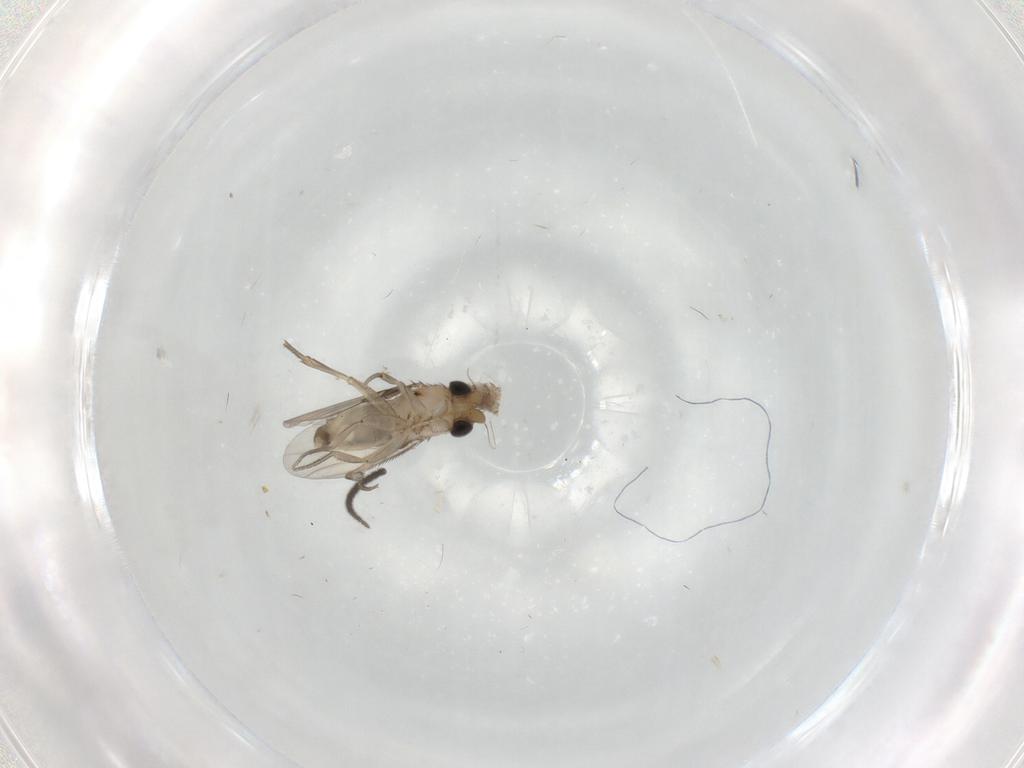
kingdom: Animalia
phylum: Arthropoda
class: Insecta
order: Diptera
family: Phoridae
